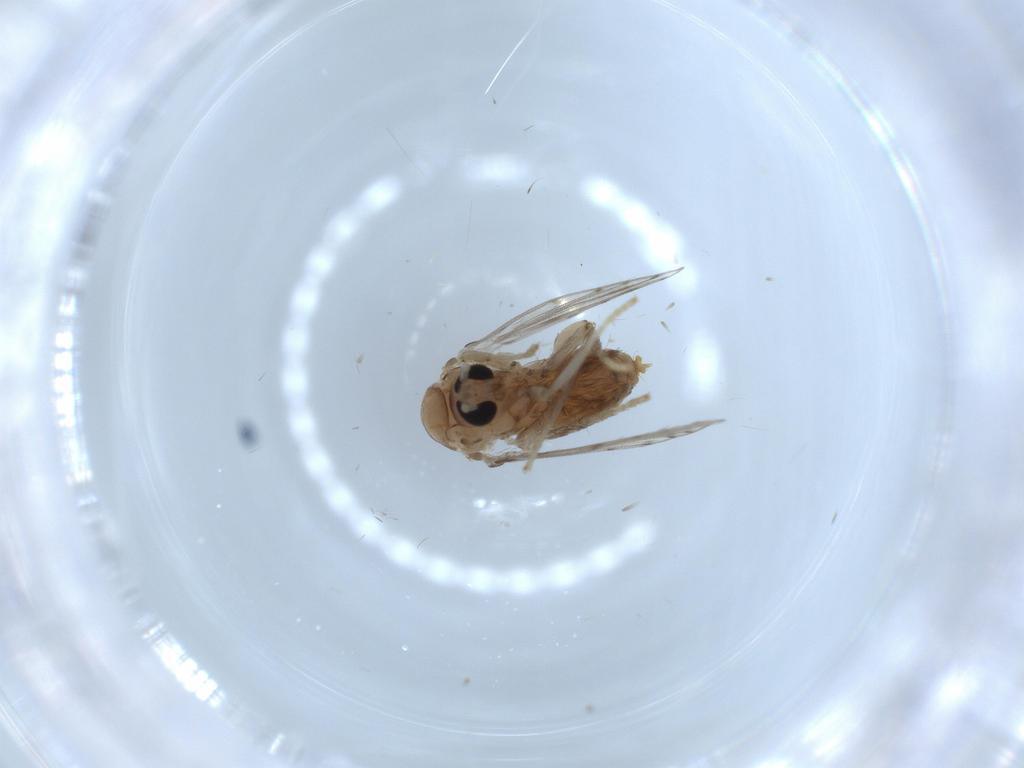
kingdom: Animalia
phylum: Arthropoda
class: Insecta
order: Diptera
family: Psychodidae
